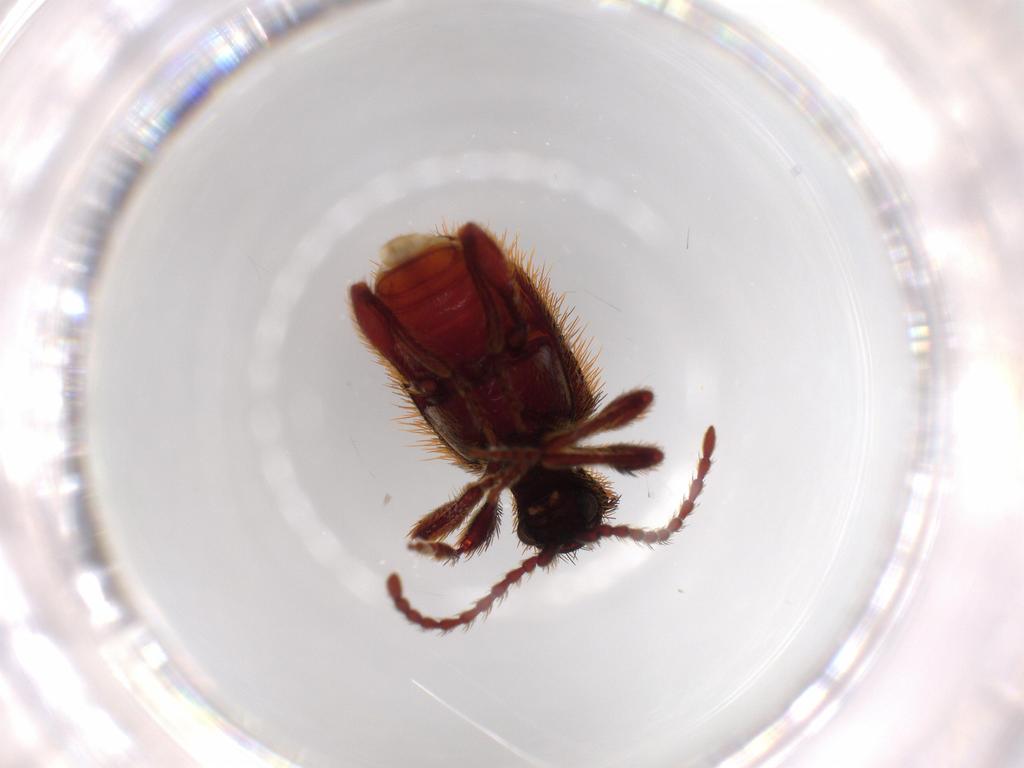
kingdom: Animalia
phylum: Arthropoda
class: Insecta
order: Coleoptera
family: Ptinidae
